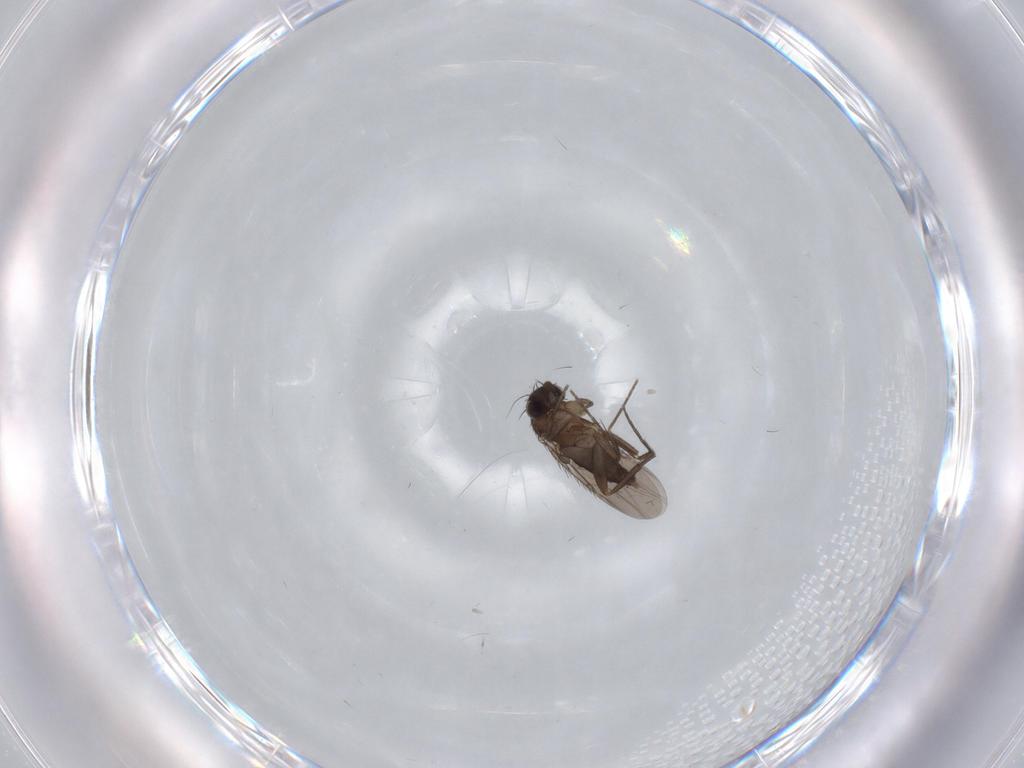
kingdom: Animalia
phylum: Arthropoda
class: Insecta
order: Diptera
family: Phoridae
